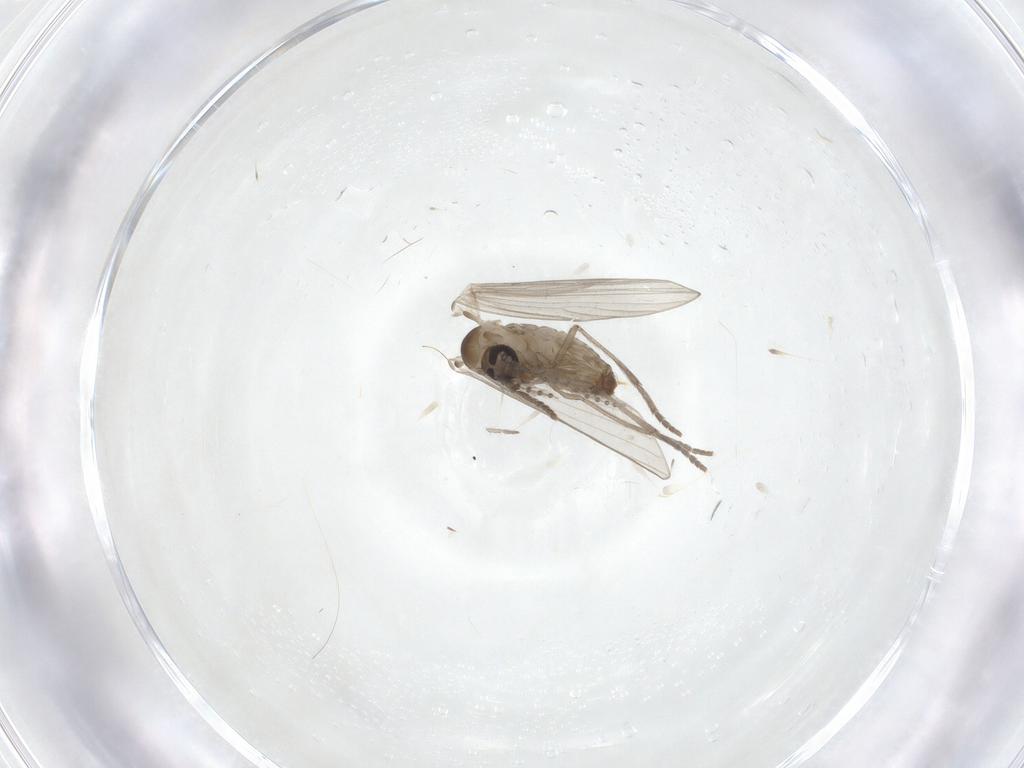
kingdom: Animalia
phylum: Arthropoda
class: Insecta
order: Diptera
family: Psychodidae
